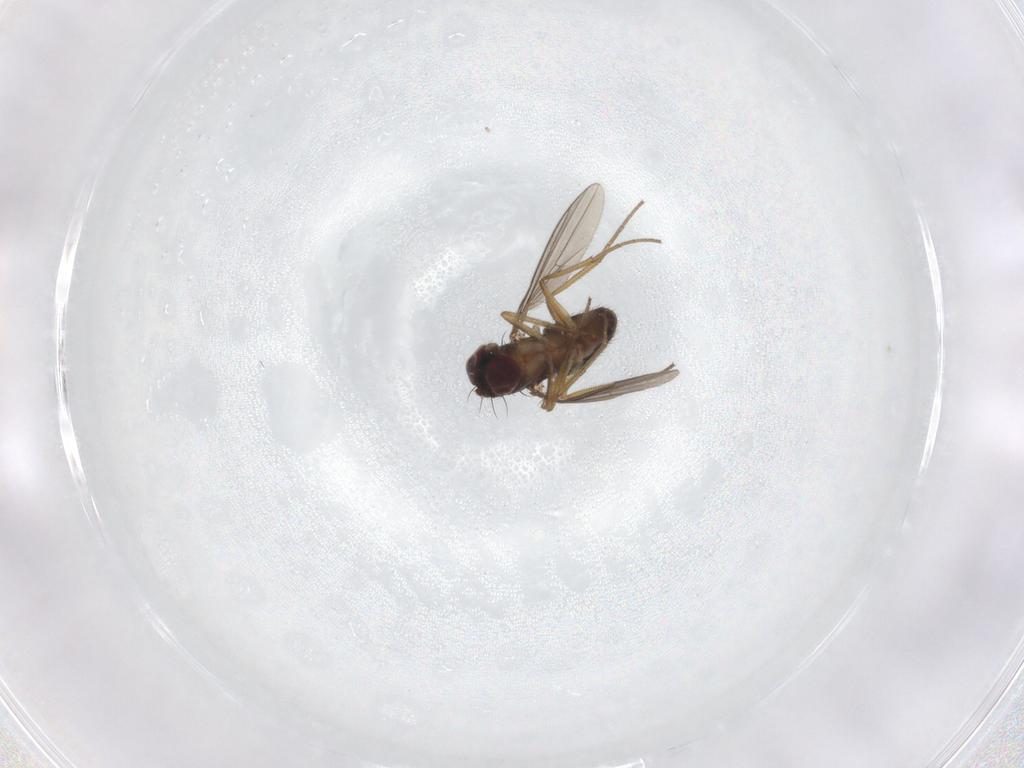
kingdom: Animalia
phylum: Arthropoda
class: Insecta
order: Diptera
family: Dolichopodidae
